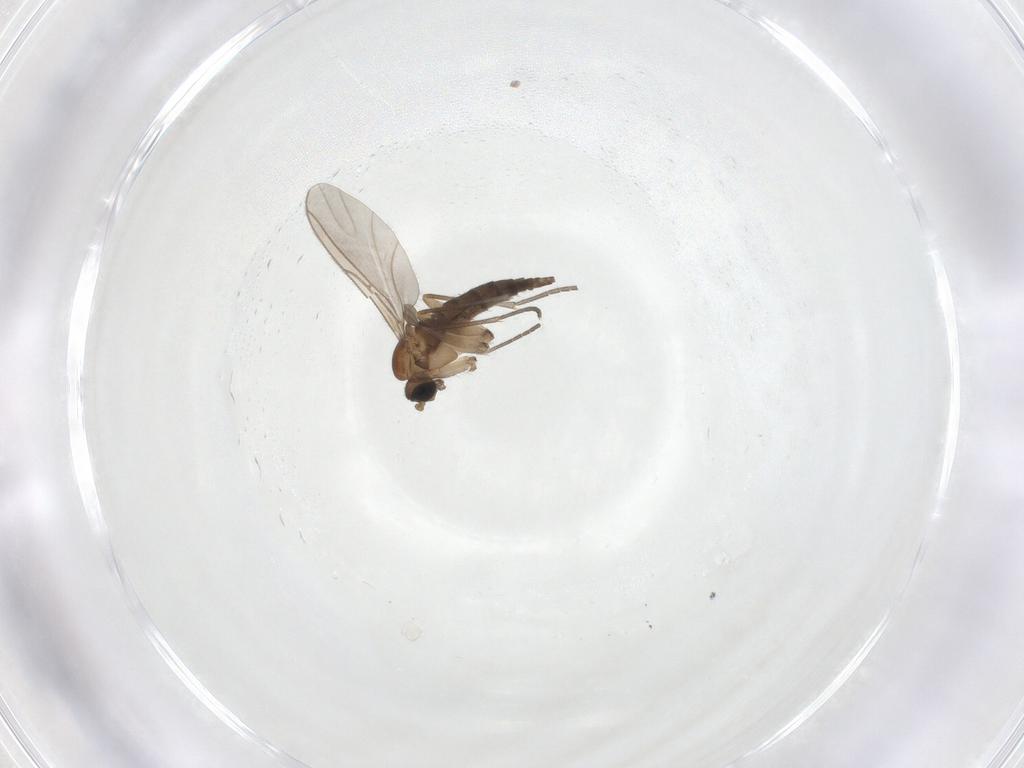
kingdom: Animalia
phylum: Arthropoda
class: Insecta
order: Diptera
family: Sciaridae
